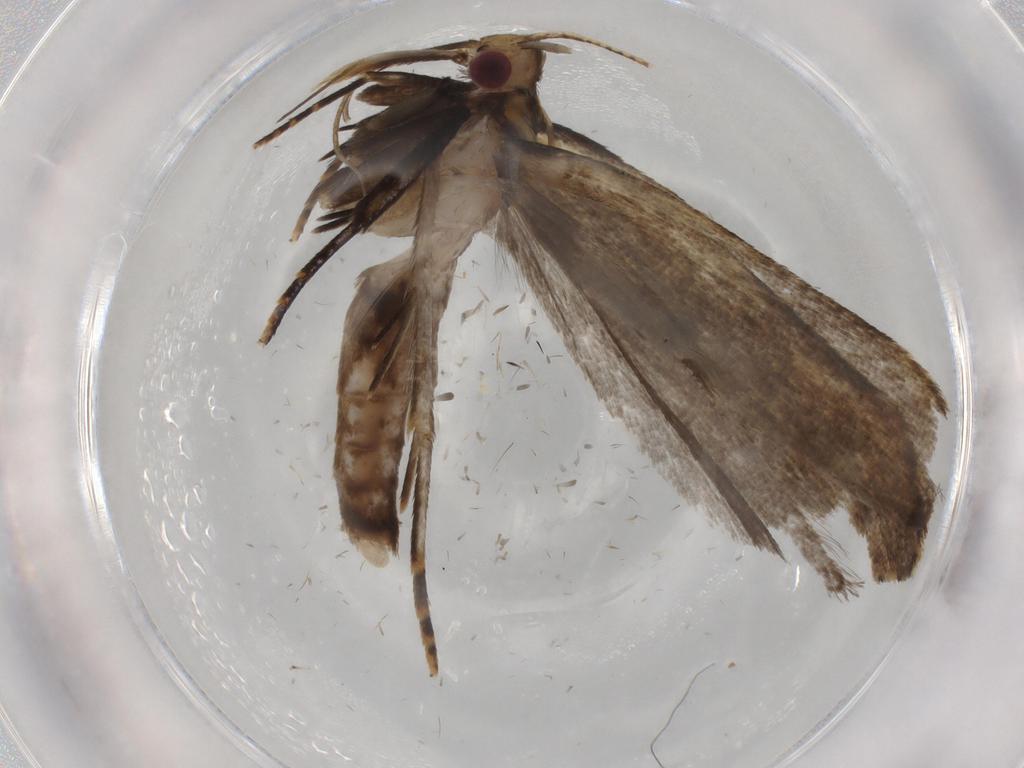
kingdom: Animalia
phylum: Arthropoda
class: Insecta
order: Lepidoptera
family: Gelechiidae
